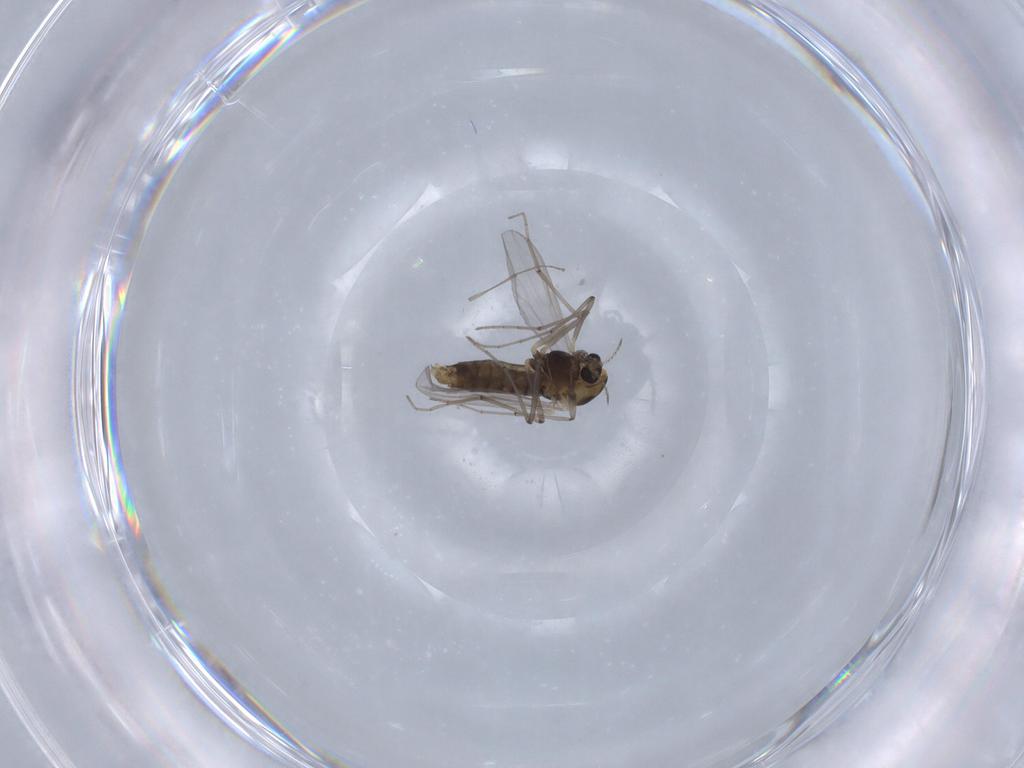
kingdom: Animalia
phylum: Arthropoda
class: Insecta
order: Diptera
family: Chironomidae
